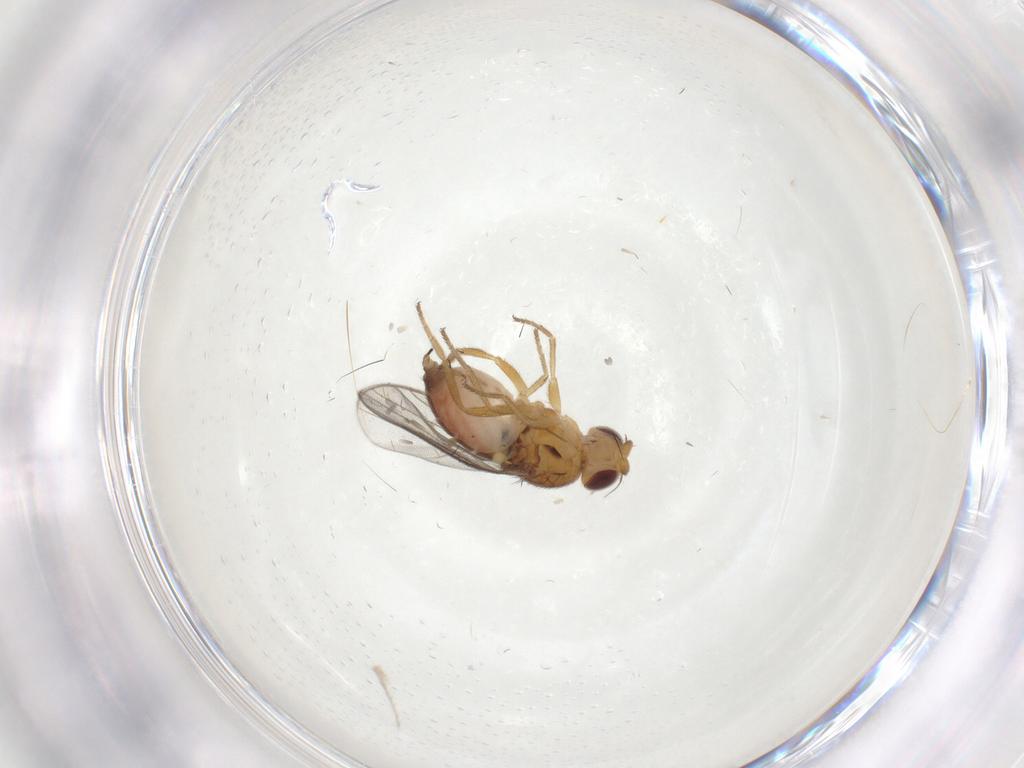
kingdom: Animalia
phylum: Arthropoda
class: Insecta
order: Diptera
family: Chloropidae
